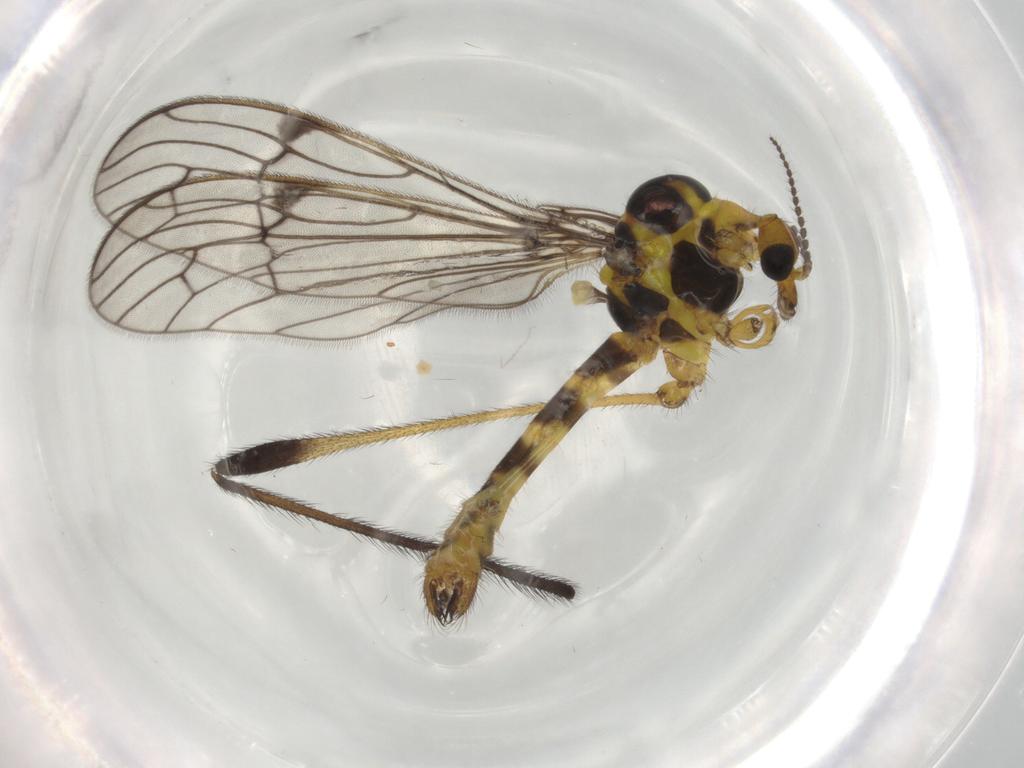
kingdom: Animalia
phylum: Arthropoda
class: Insecta
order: Diptera
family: Limoniidae
